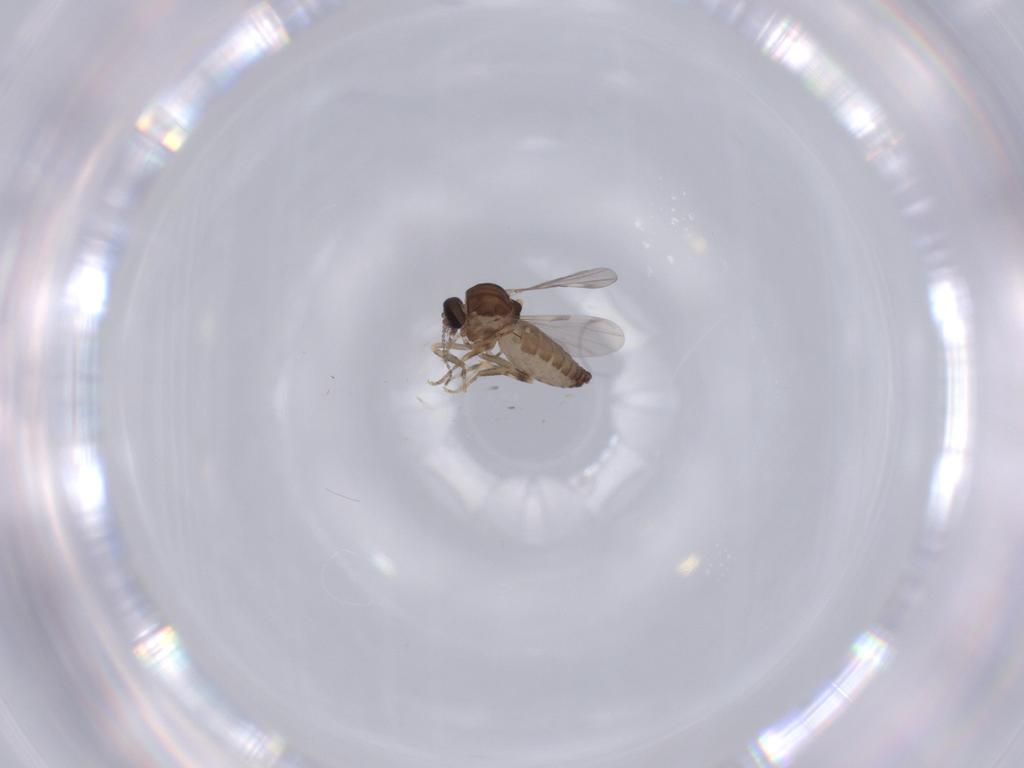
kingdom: Animalia
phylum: Arthropoda
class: Insecta
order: Diptera
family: Ceratopogonidae
